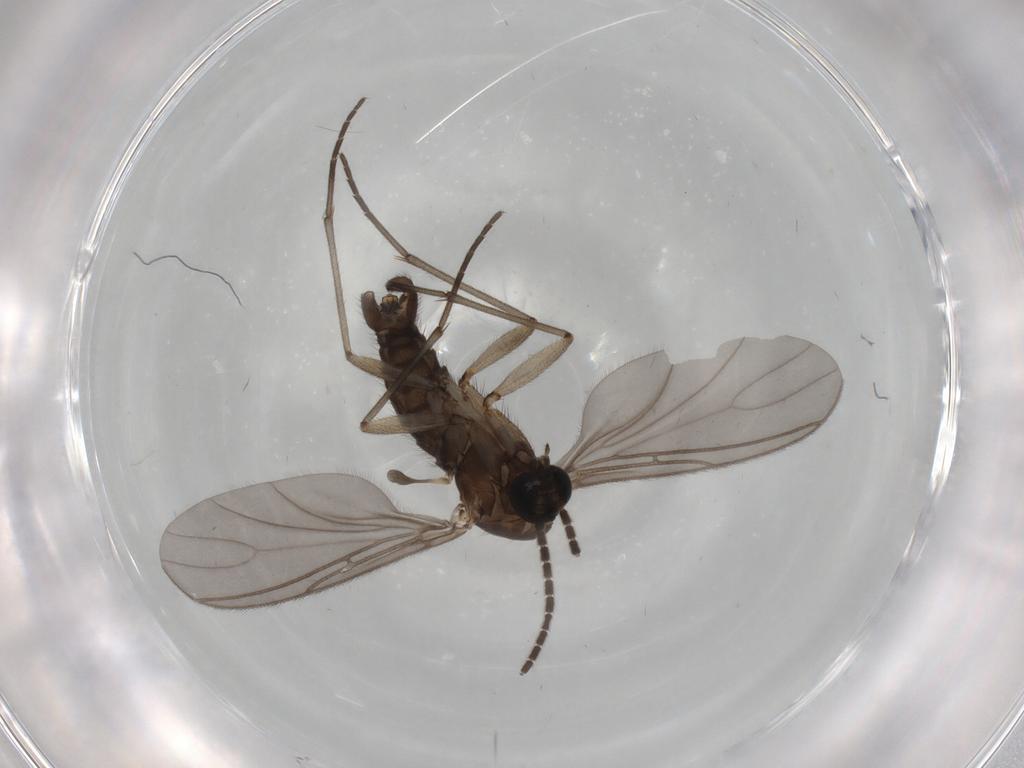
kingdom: Animalia
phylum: Arthropoda
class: Insecta
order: Diptera
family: Sciaridae
